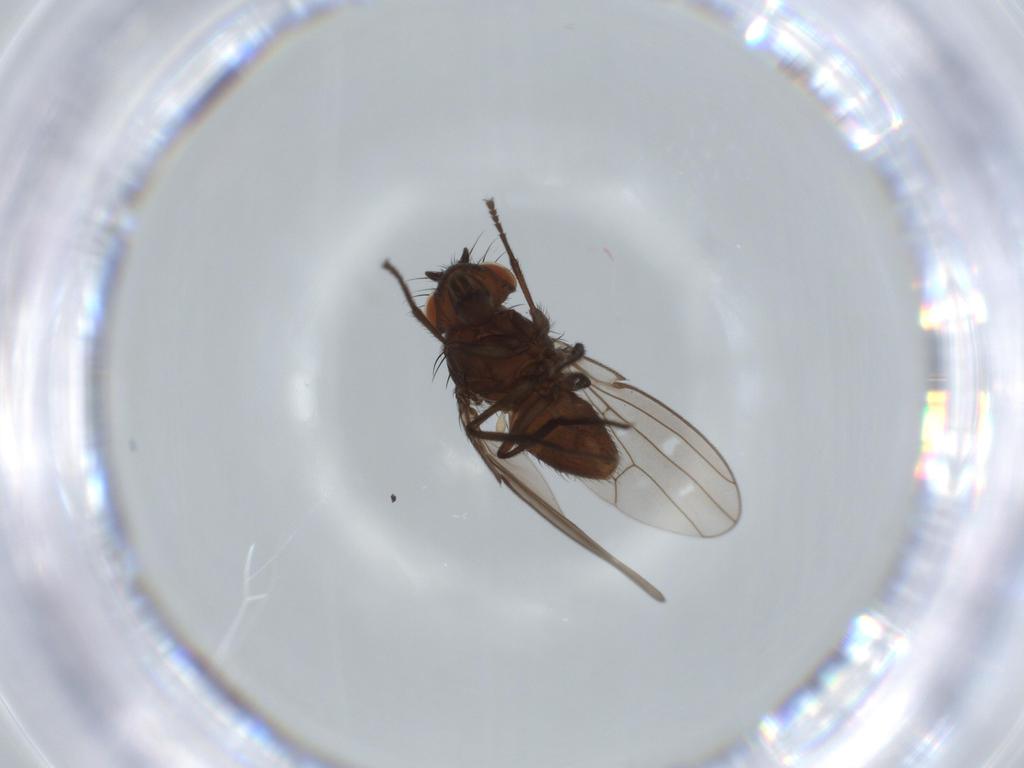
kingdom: Animalia
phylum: Arthropoda
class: Insecta
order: Diptera
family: Ephydridae
